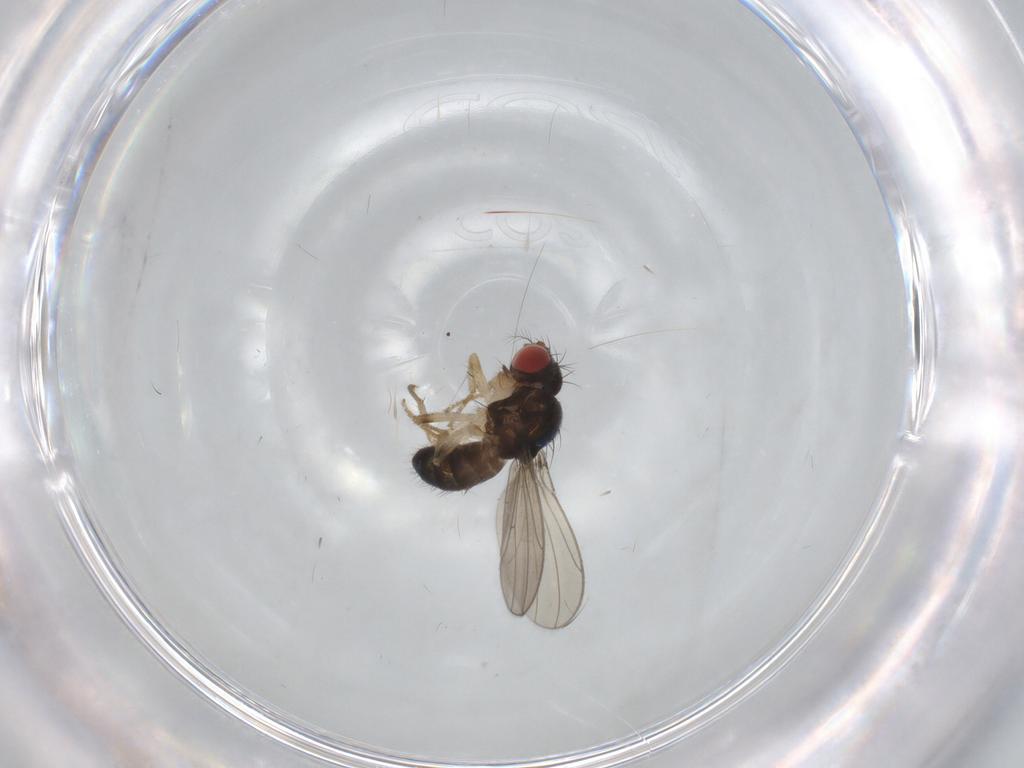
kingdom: Animalia
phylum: Arthropoda
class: Insecta
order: Diptera
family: Drosophilidae
